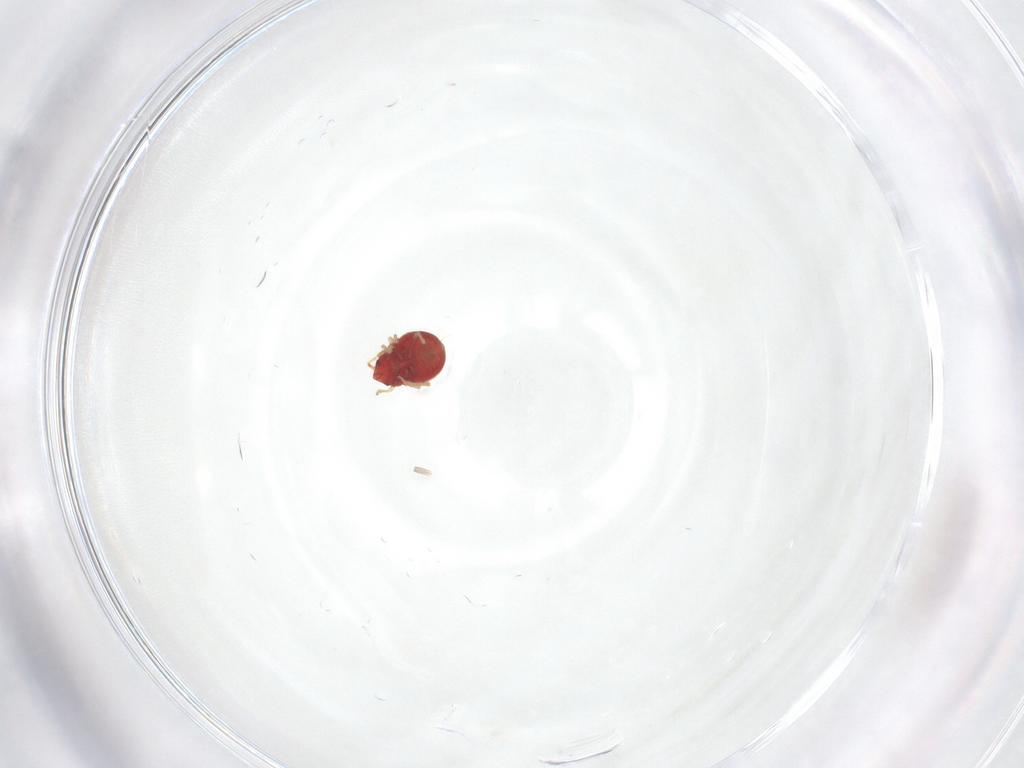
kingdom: Animalia
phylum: Arthropoda
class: Insecta
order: Hemiptera
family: Anthocoridae
